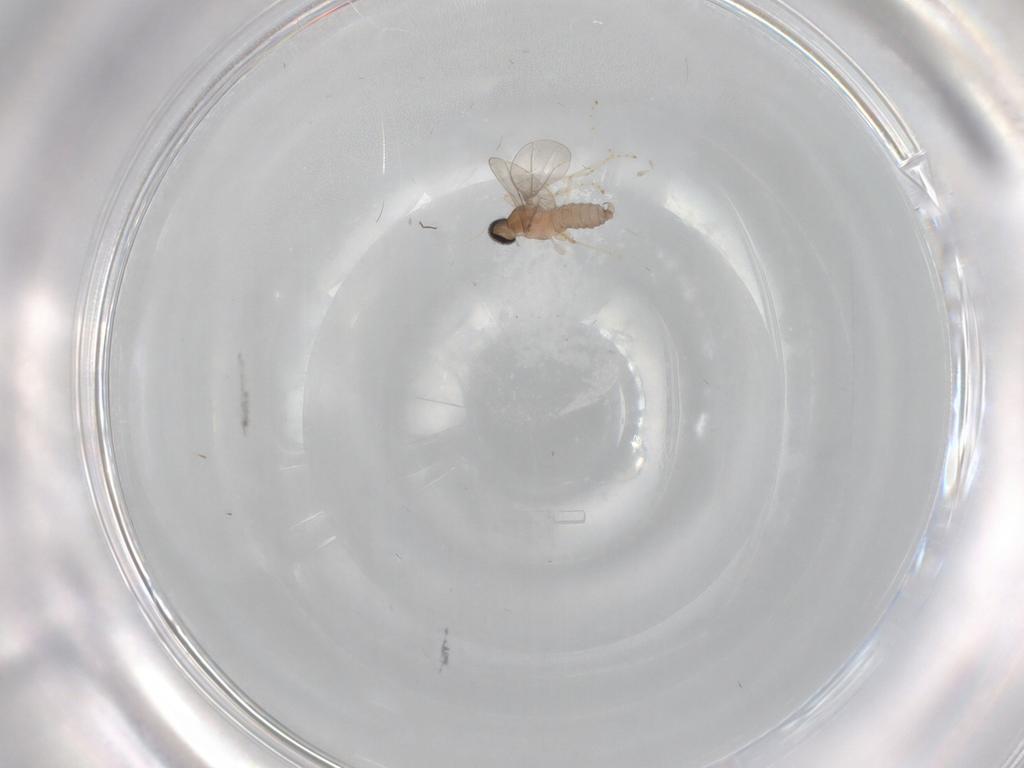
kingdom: Animalia
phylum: Arthropoda
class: Insecta
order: Diptera
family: Cecidomyiidae
